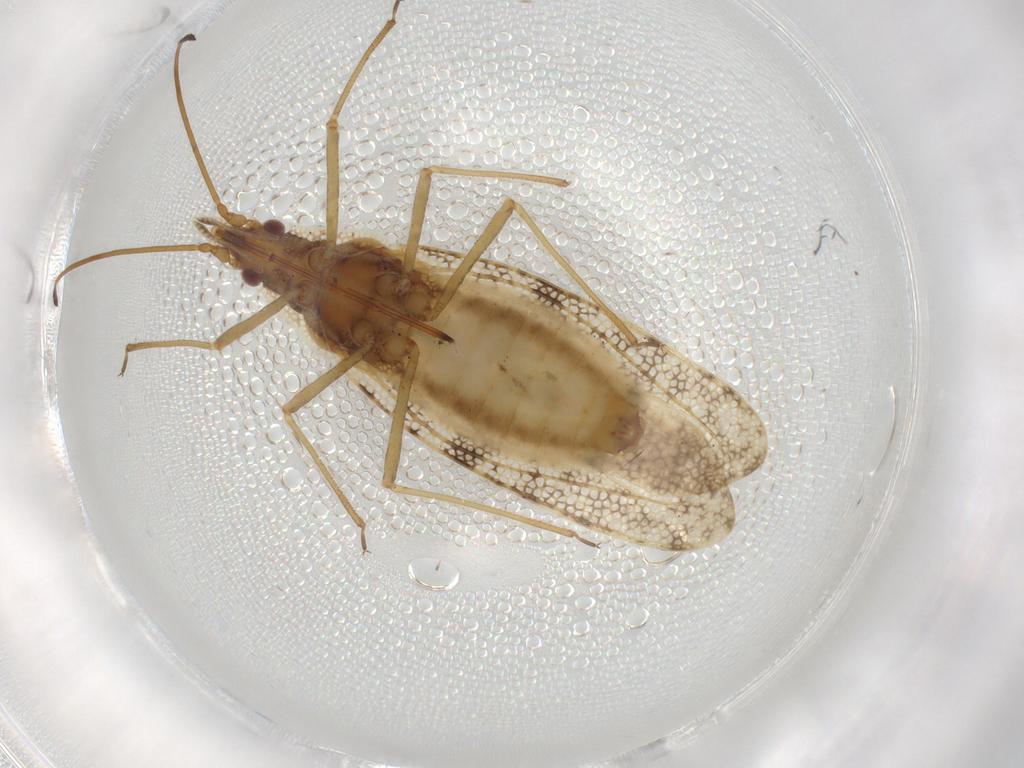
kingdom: Animalia
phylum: Arthropoda
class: Insecta
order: Hemiptera
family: Tingidae
